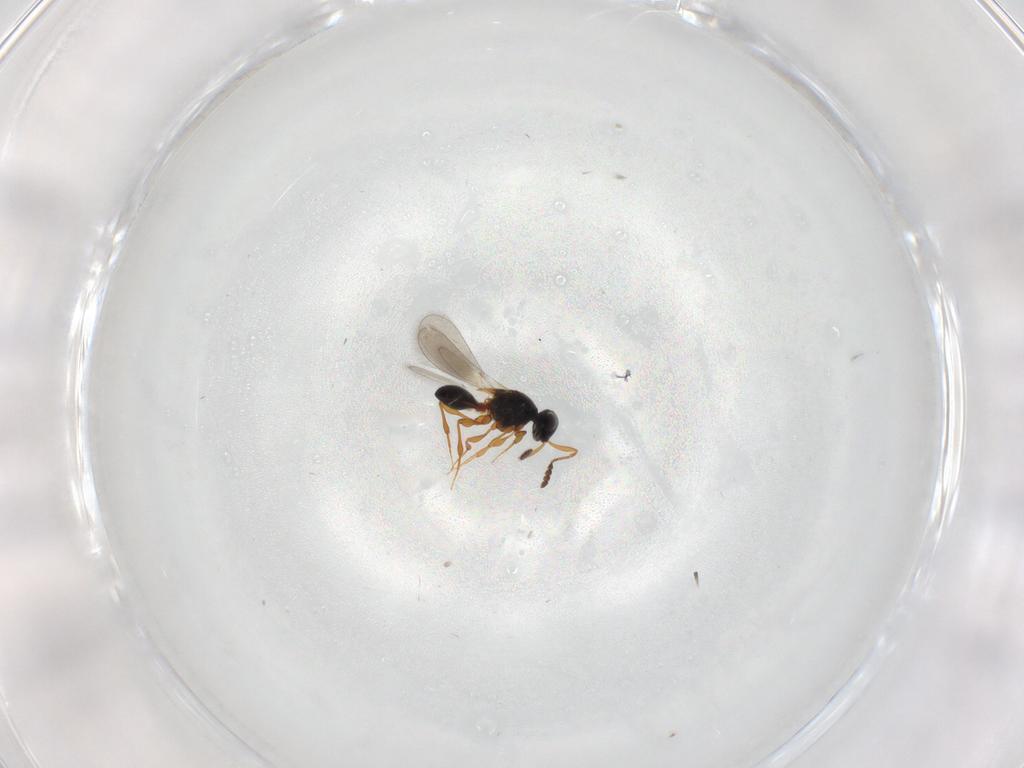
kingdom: Animalia
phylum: Arthropoda
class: Insecta
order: Hymenoptera
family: Platygastridae
